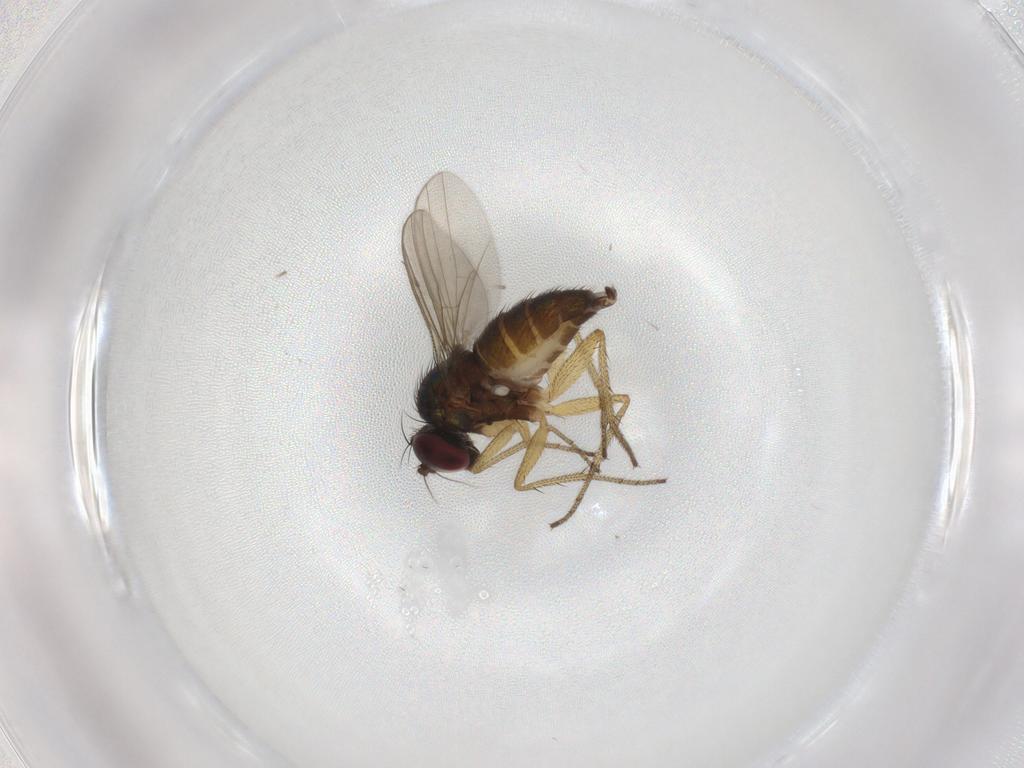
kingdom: Animalia
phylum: Arthropoda
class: Insecta
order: Diptera
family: Dolichopodidae
